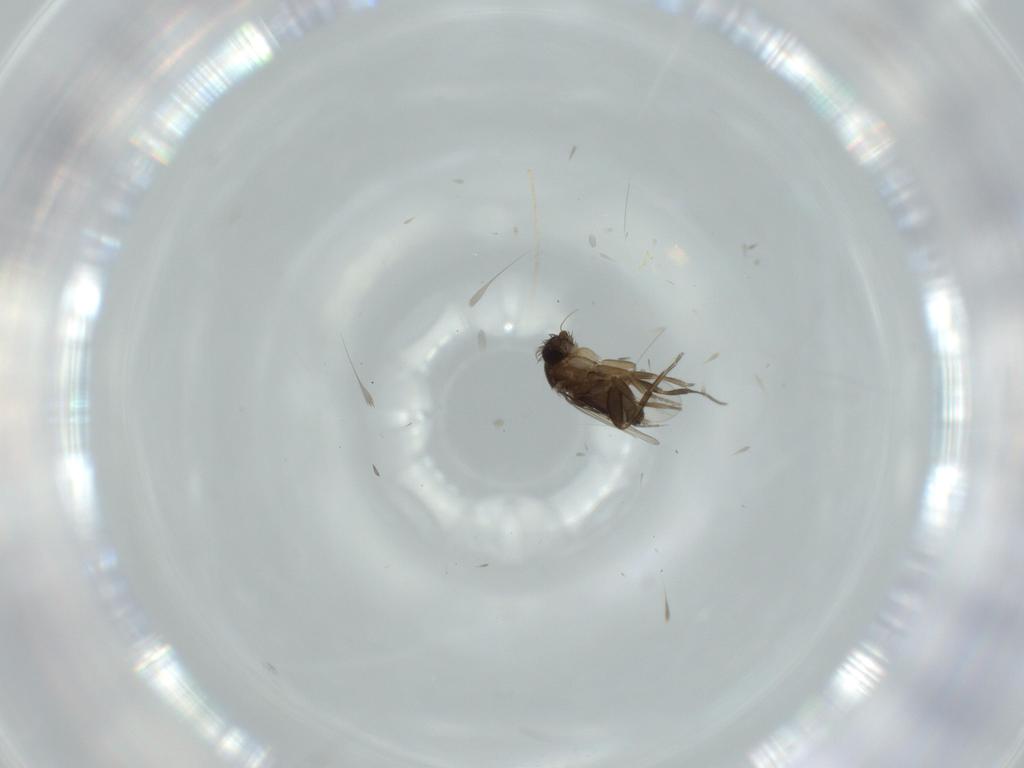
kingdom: Animalia
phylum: Arthropoda
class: Insecta
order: Diptera
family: Phoridae
